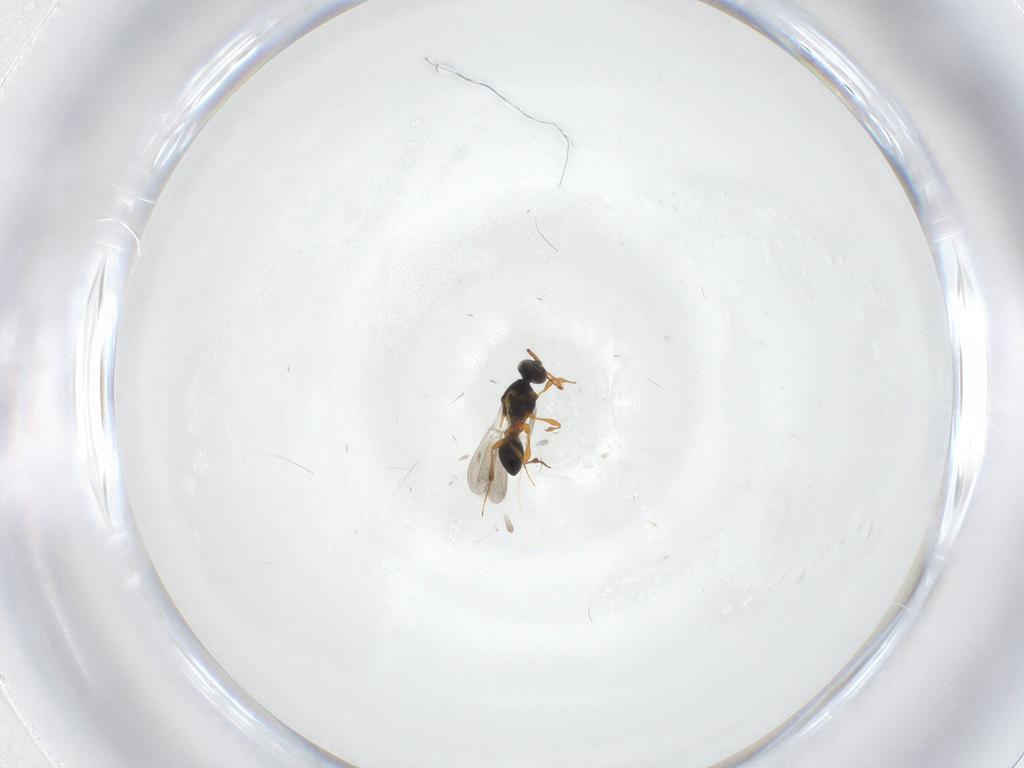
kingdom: Animalia
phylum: Arthropoda
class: Insecta
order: Hymenoptera
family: Platygastridae
